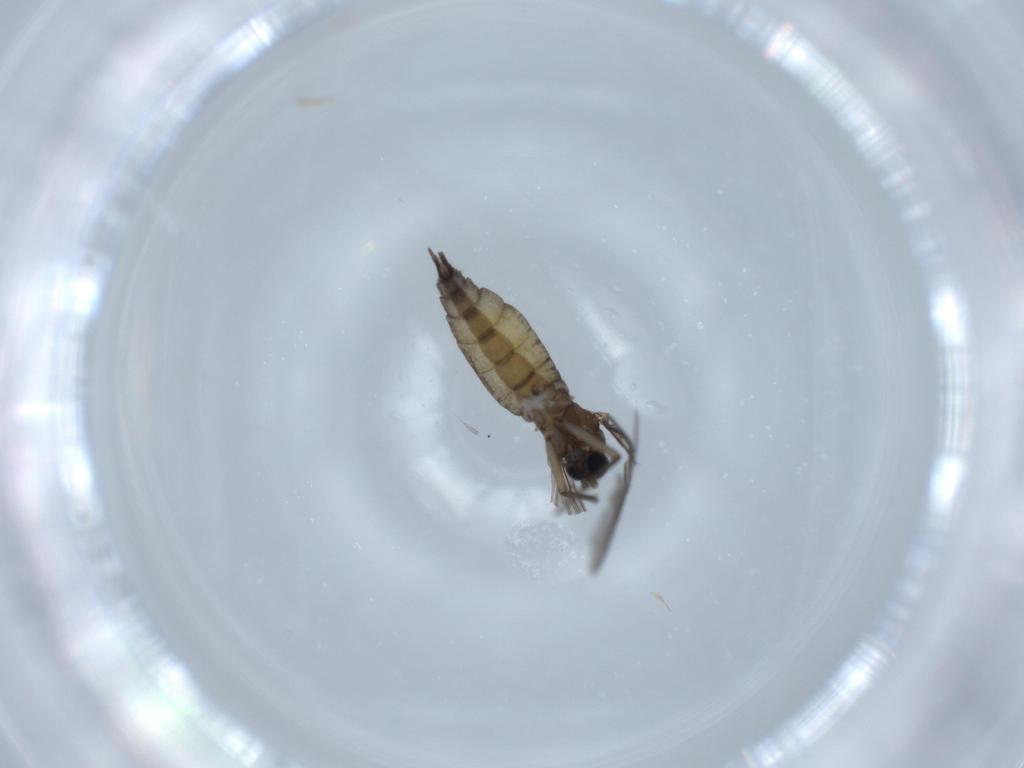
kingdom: Animalia
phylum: Arthropoda
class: Insecta
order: Diptera
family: Sciaridae
